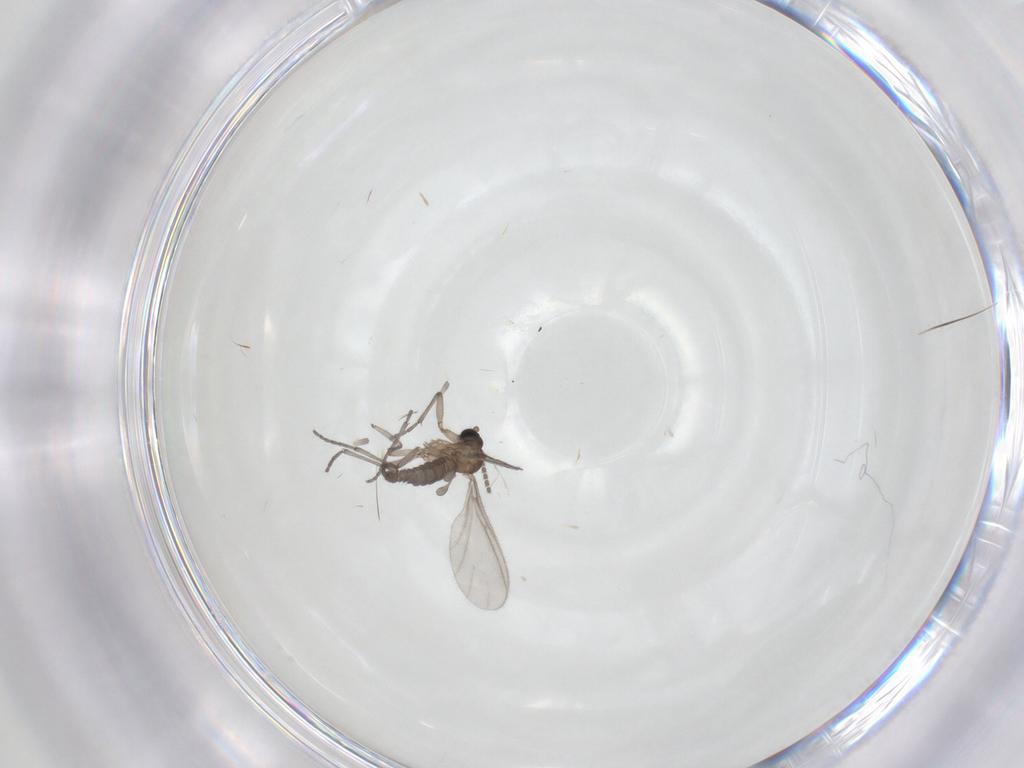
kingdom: Animalia
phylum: Arthropoda
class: Insecta
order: Diptera
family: Sciaridae
